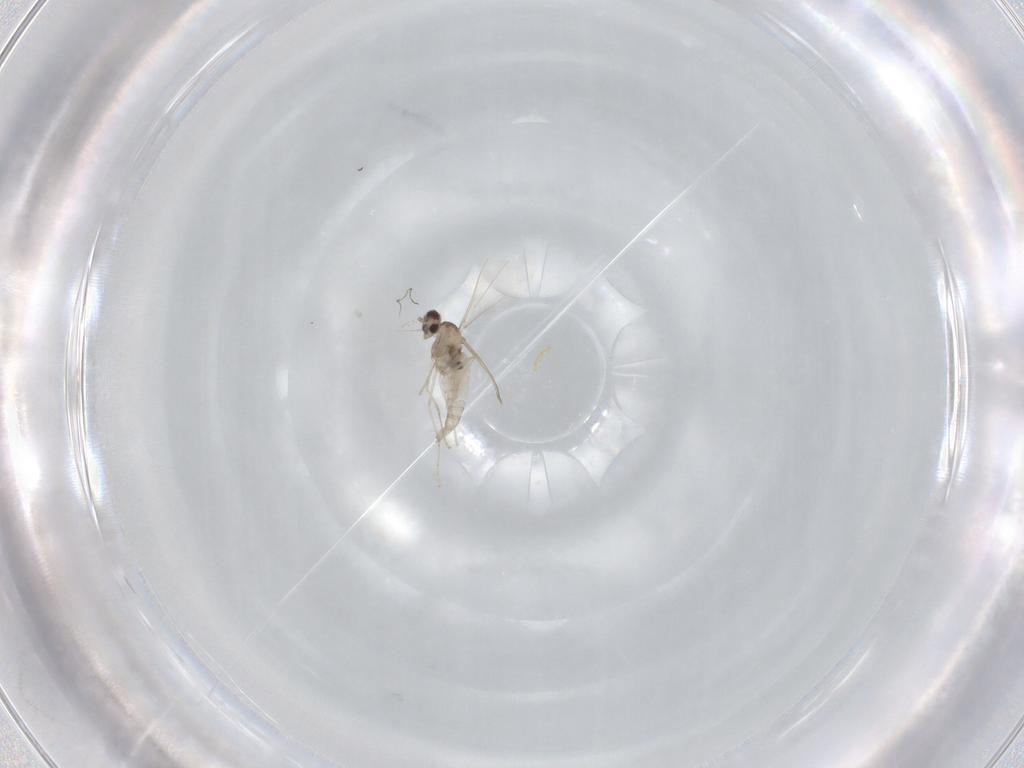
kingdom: Animalia
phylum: Arthropoda
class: Insecta
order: Diptera
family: Cecidomyiidae
